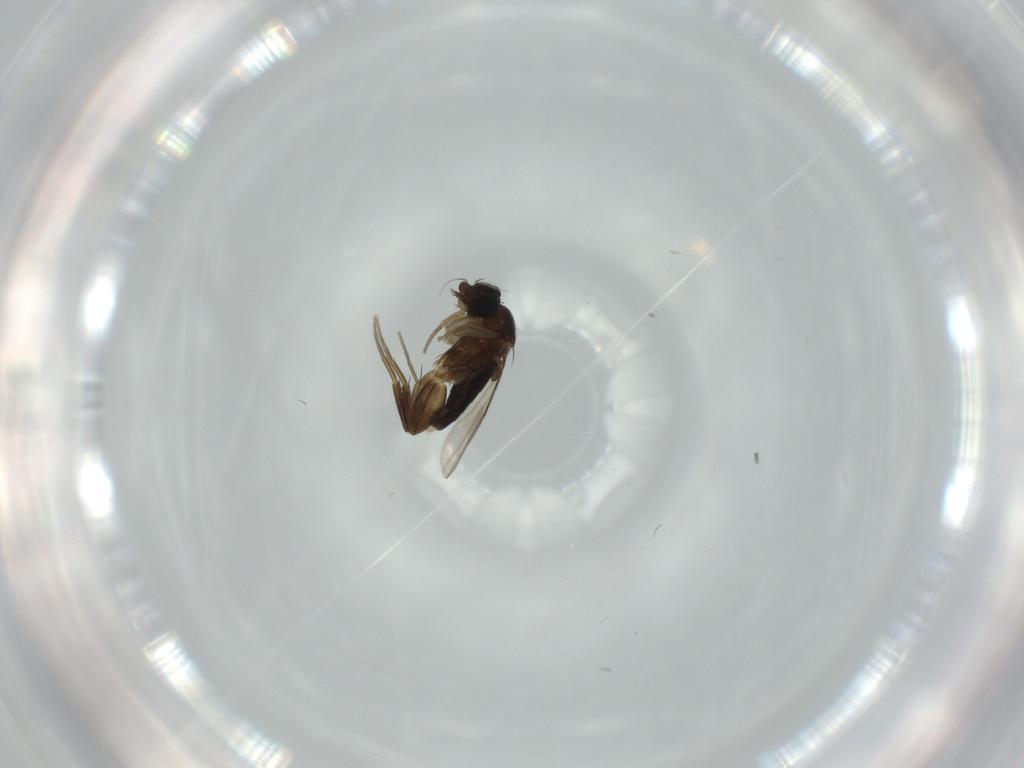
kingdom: Animalia
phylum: Arthropoda
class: Insecta
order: Diptera
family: Phoridae
